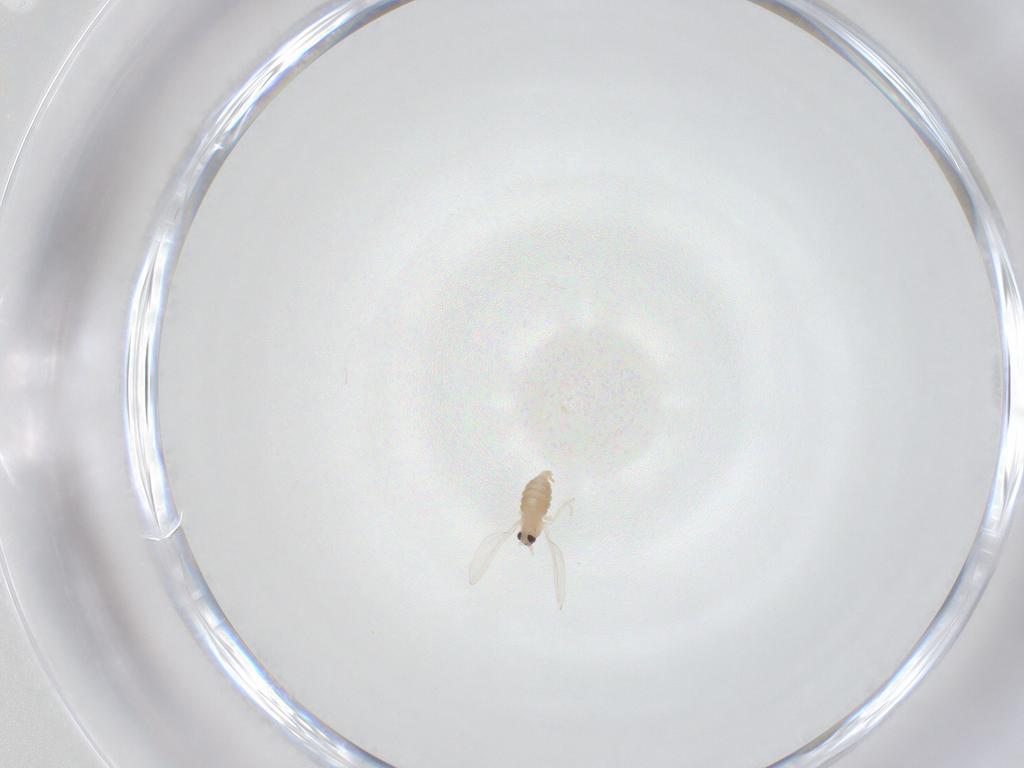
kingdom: Animalia
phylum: Arthropoda
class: Insecta
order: Diptera
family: Cecidomyiidae
